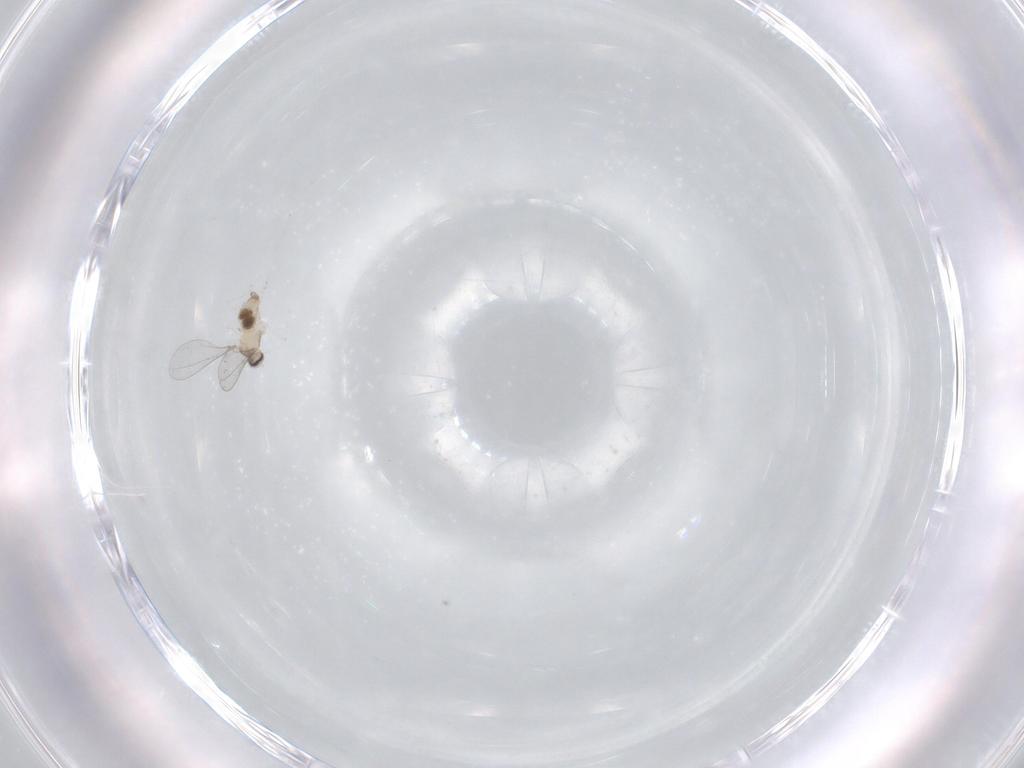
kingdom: Animalia
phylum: Arthropoda
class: Insecta
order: Diptera
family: Cecidomyiidae
